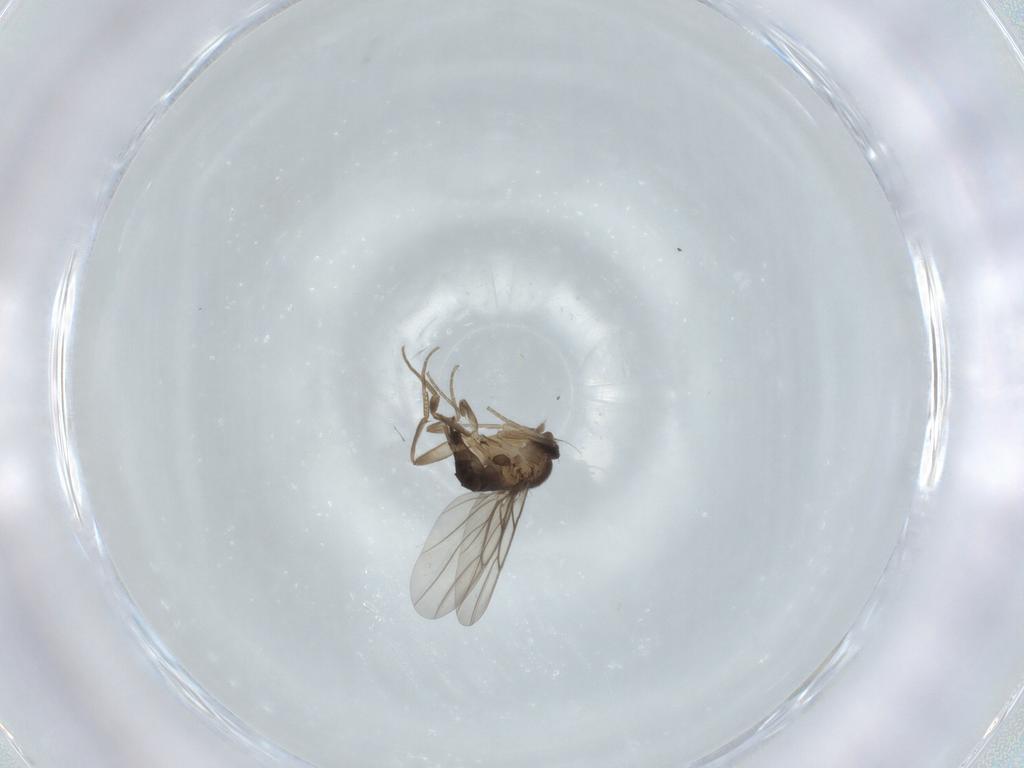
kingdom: Animalia
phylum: Arthropoda
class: Insecta
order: Diptera
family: Phoridae
